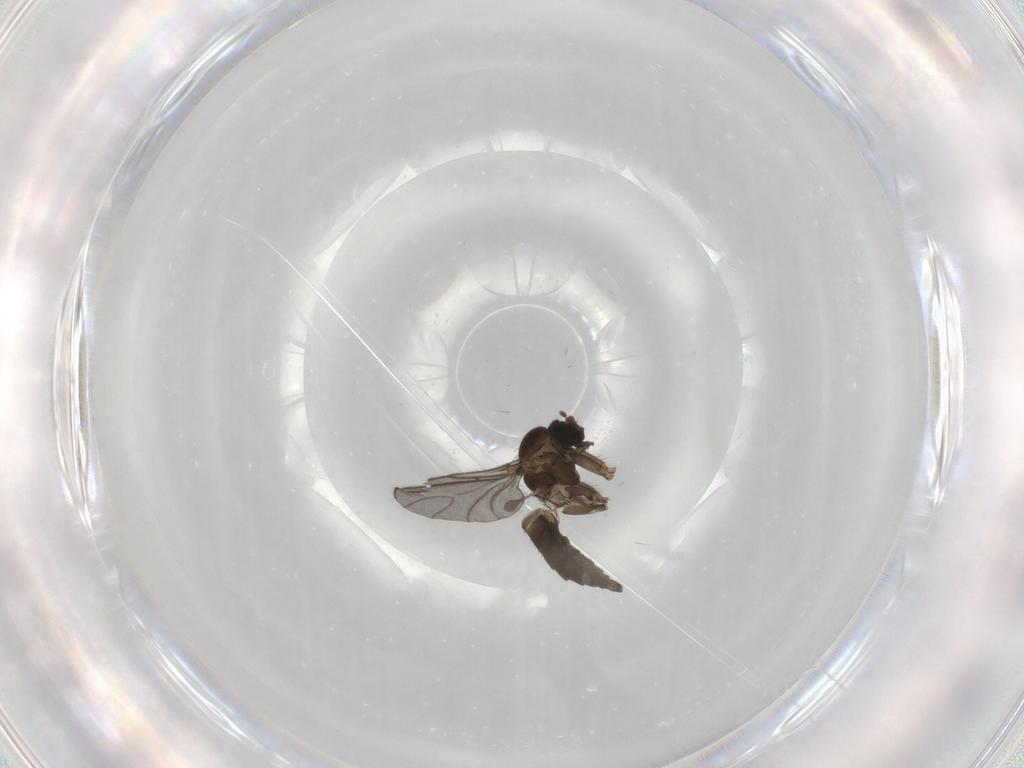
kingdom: Animalia
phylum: Arthropoda
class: Insecta
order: Diptera
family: Sciaridae
